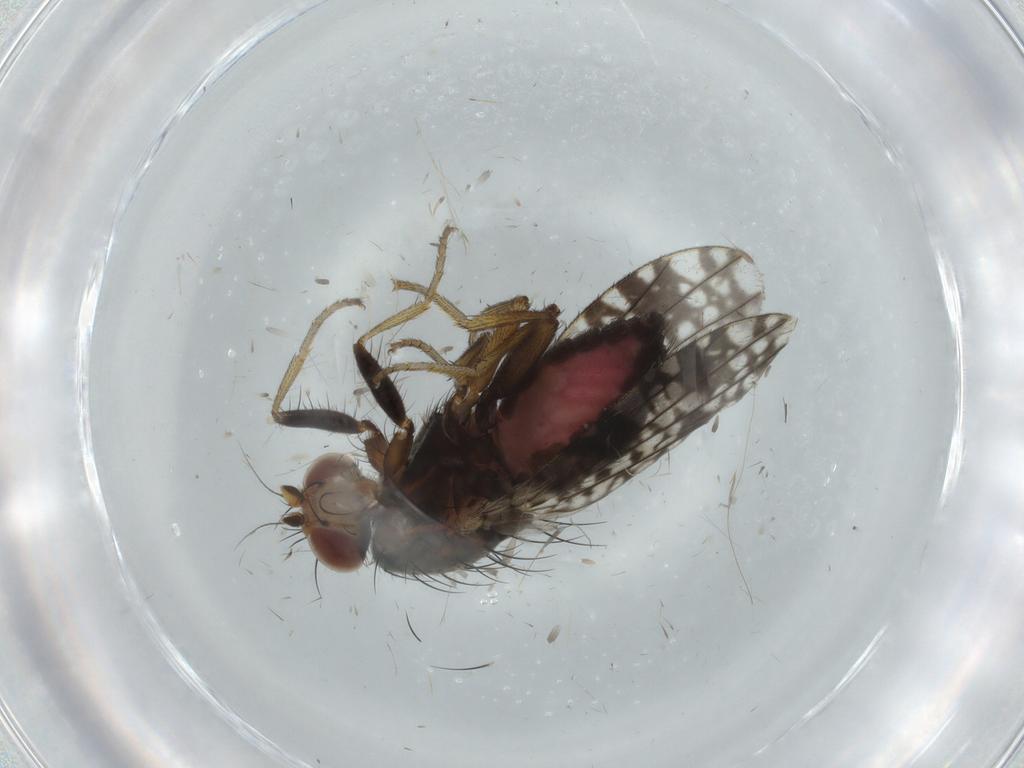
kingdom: Animalia
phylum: Arthropoda
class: Insecta
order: Diptera
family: Tephritidae
